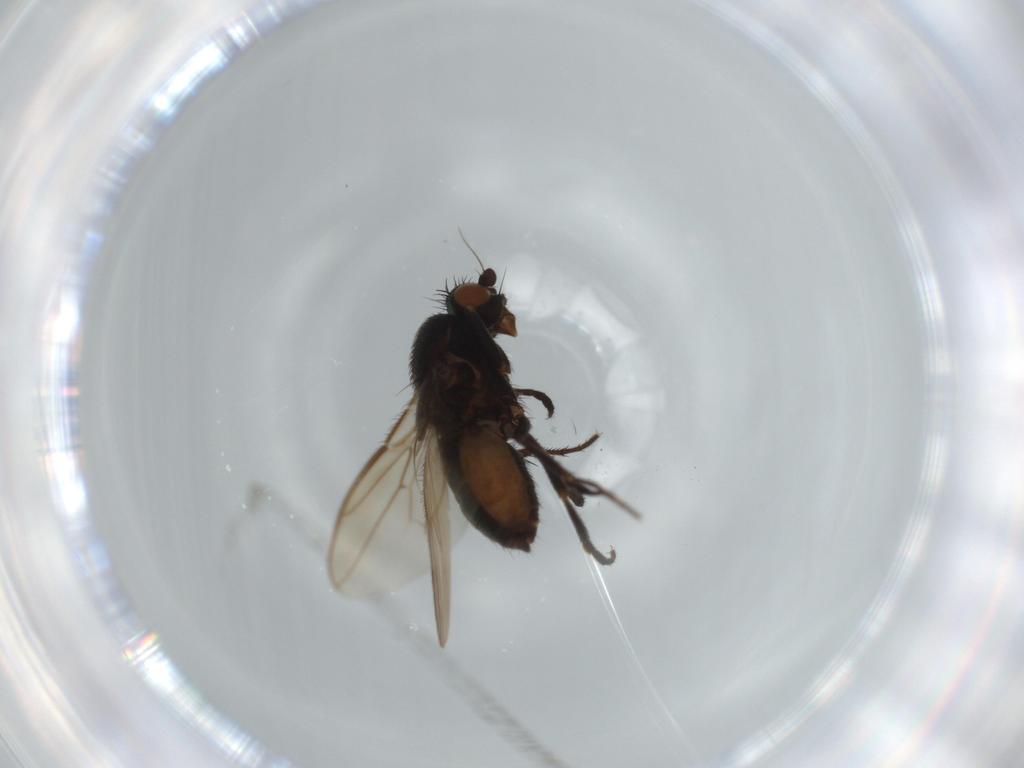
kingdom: Animalia
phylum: Arthropoda
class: Insecta
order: Diptera
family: Sphaeroceridae
